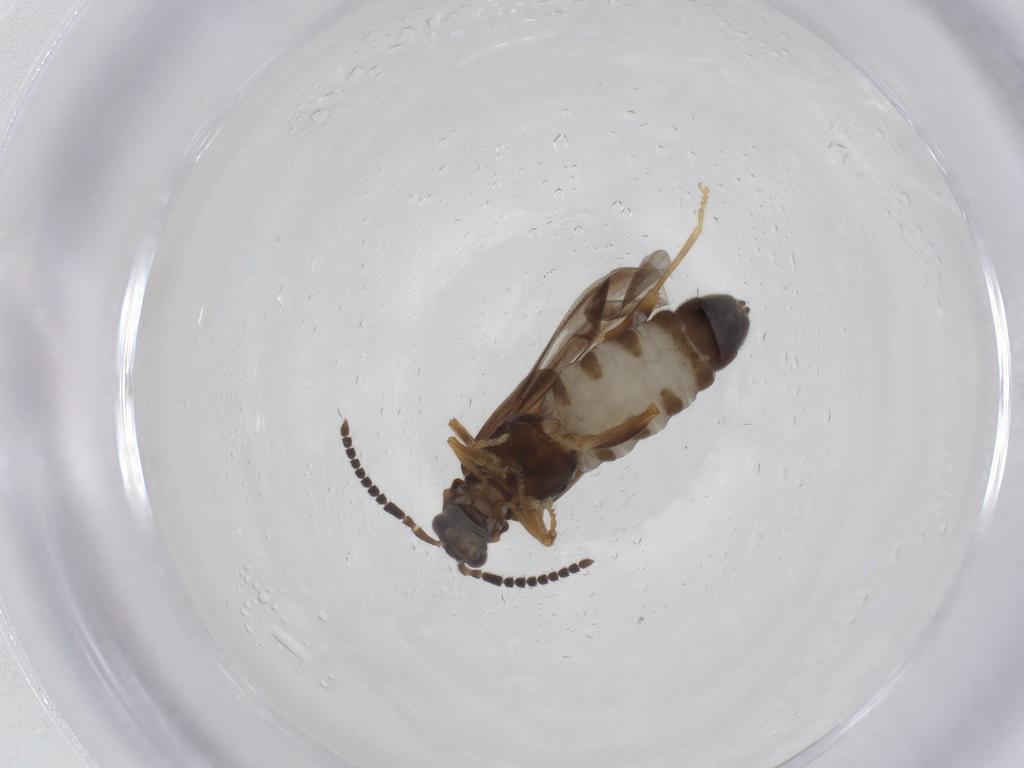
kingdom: Animalia
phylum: Arthropoda
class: Insecta
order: Coleoptera
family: Cantharidae
